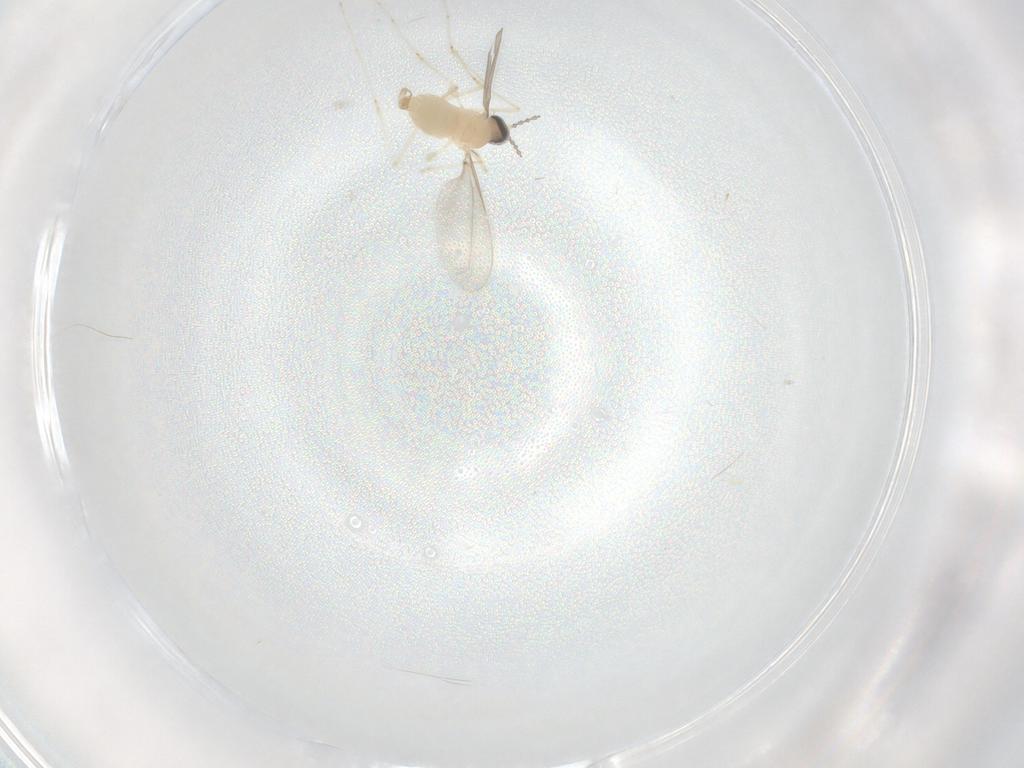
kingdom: Animalia
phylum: Arthropoda
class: Insecta
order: Diptera
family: Cecidomyiidae
